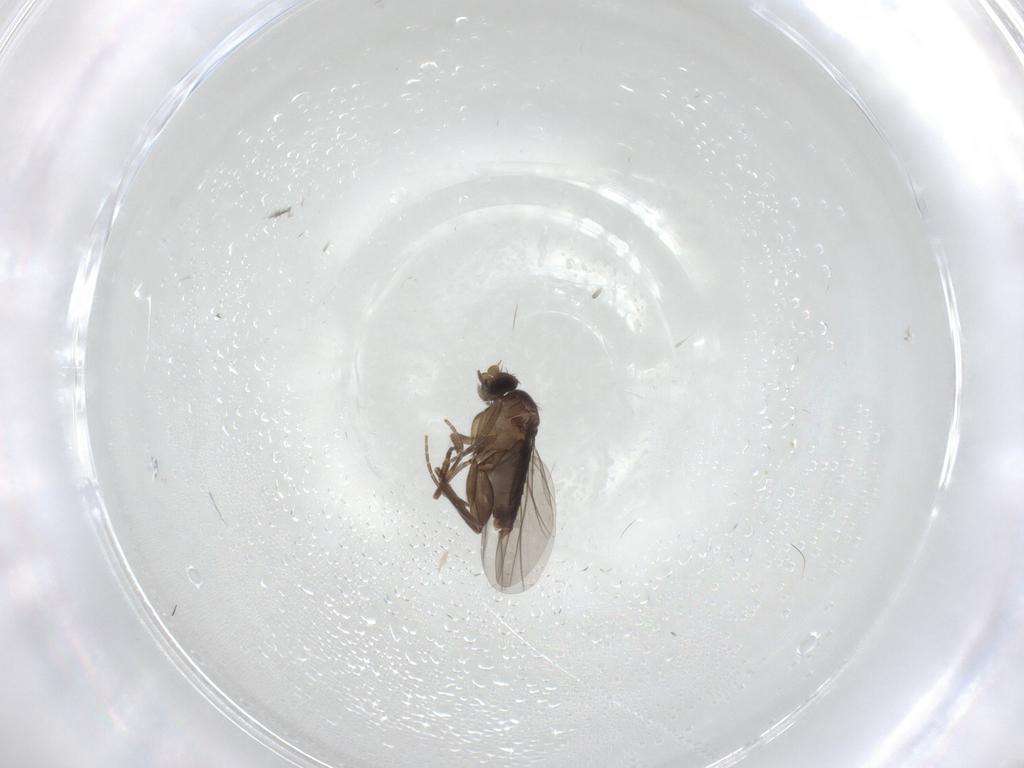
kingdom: Animalia
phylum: Arthropoda
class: Insecta
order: Diptera
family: Phoridae
